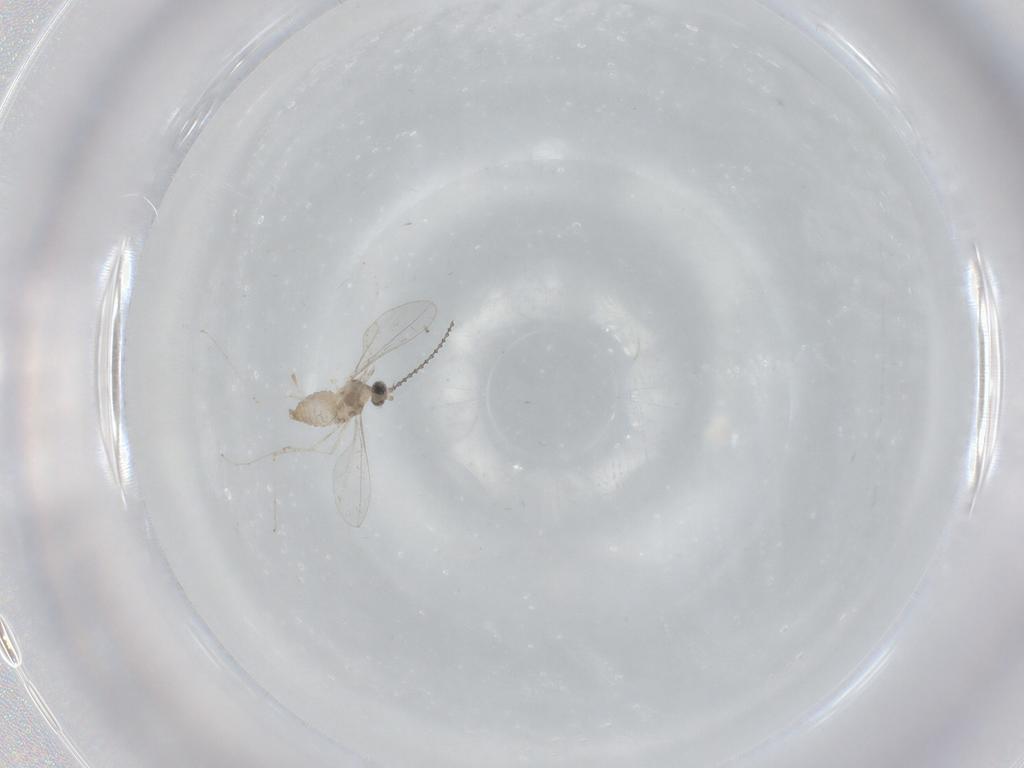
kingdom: Animalia
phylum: Arthropoda
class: Insecta
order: Diptera
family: Cecidomyiidae
